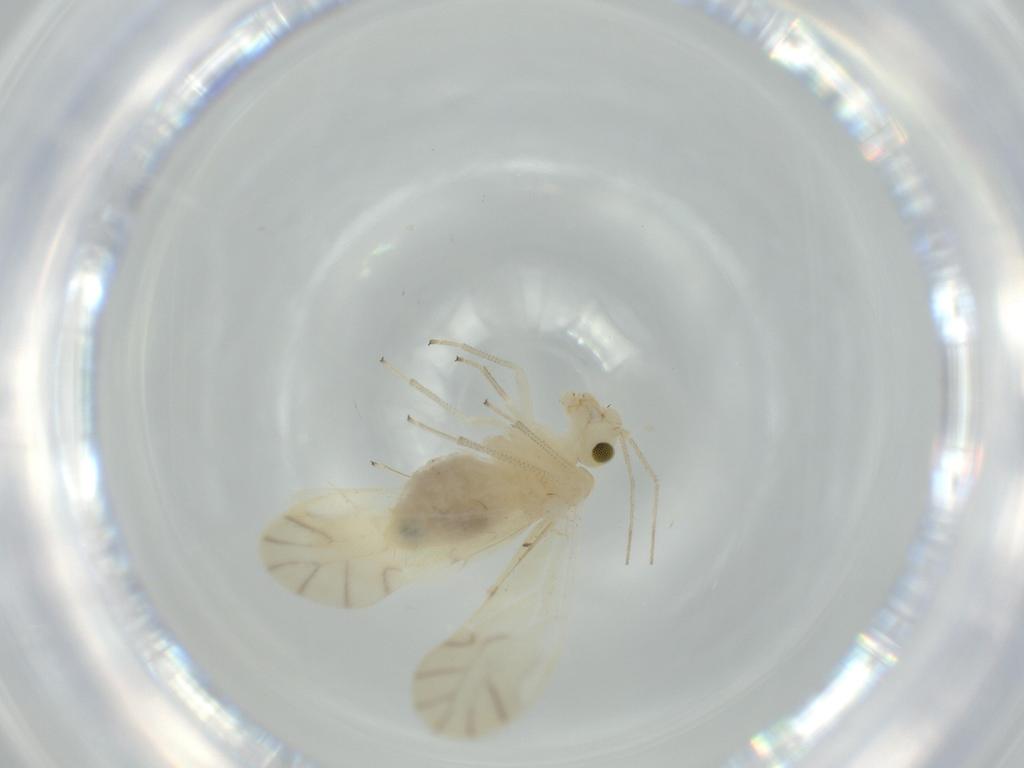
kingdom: Animalia
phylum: Arthropoda
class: Insecta
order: Psocodea
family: Caeciliusidae
